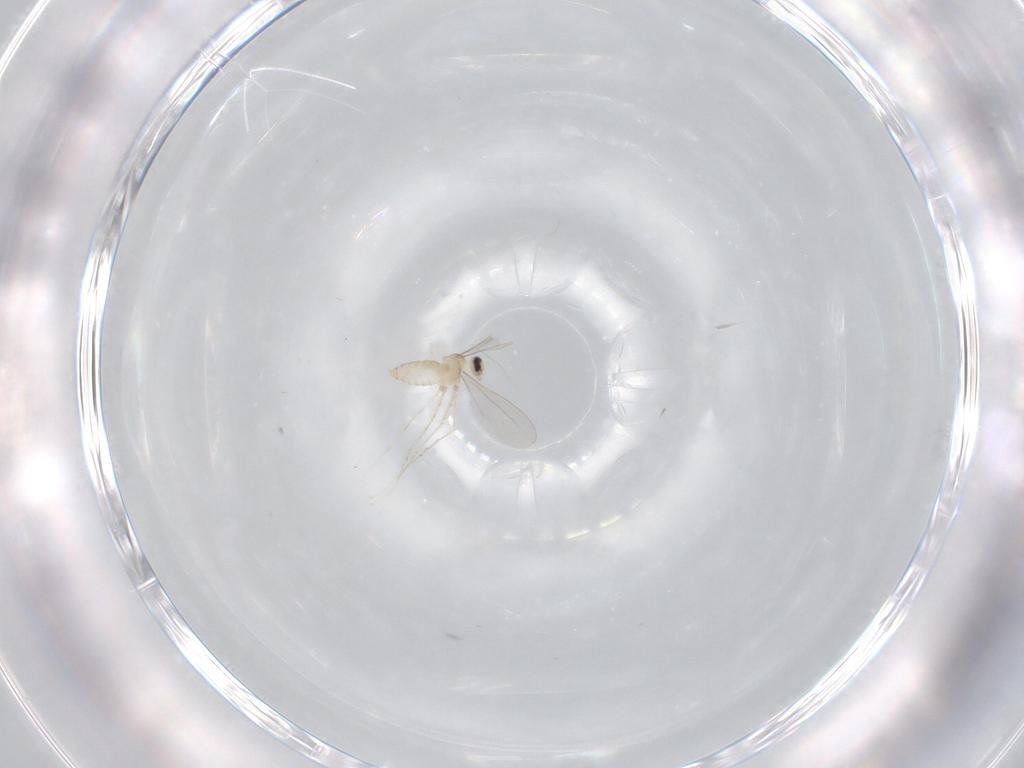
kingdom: Animalia
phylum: Arthropoda
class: Insecta
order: Diptera
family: Cecidomyiidae
